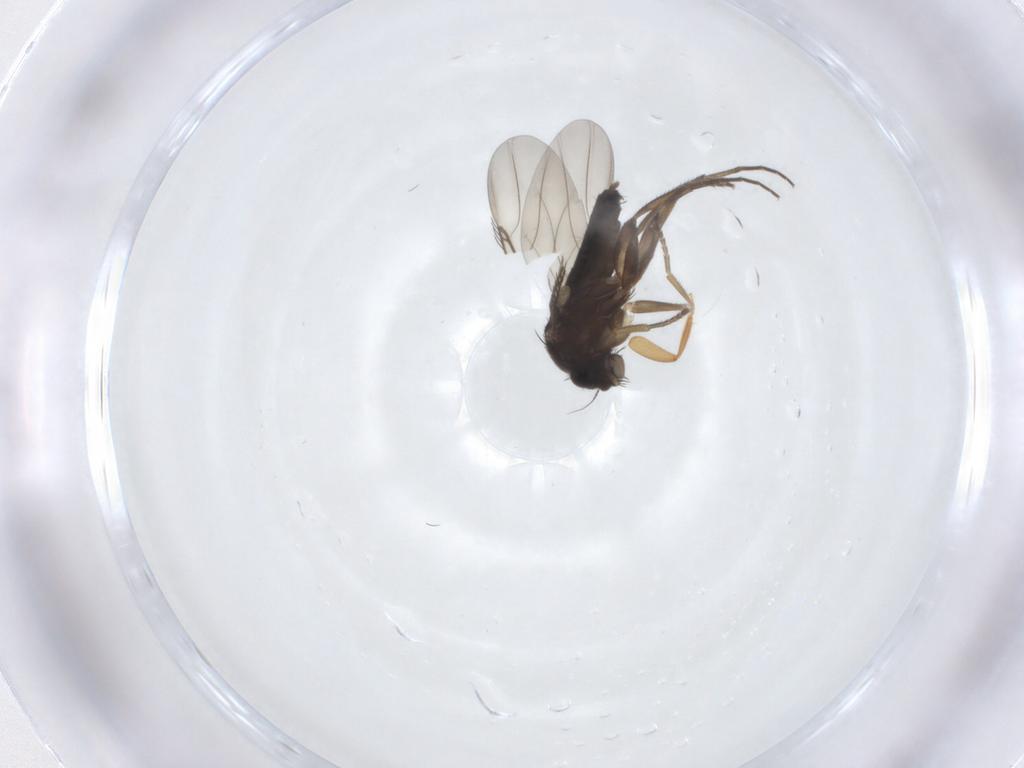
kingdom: Animalia
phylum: Arthropoda
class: Insecta
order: Diptera
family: Phoridae
